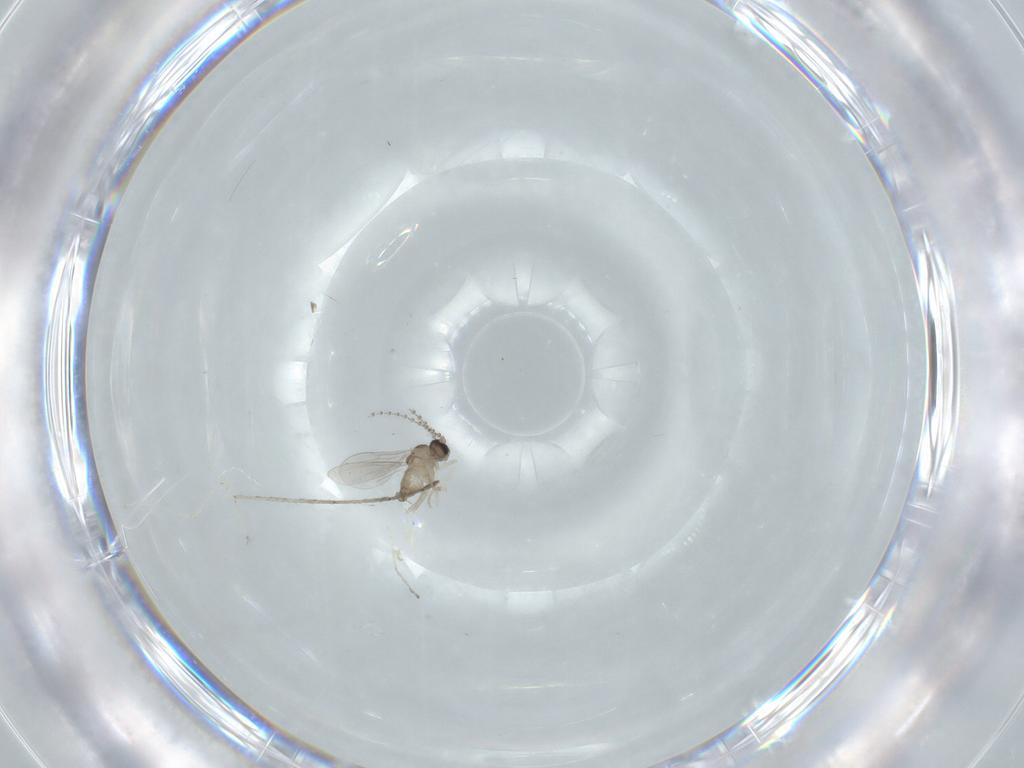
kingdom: Animalia
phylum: Arthropoda
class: Insecta
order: Diptera
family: Cecidomyiidae
